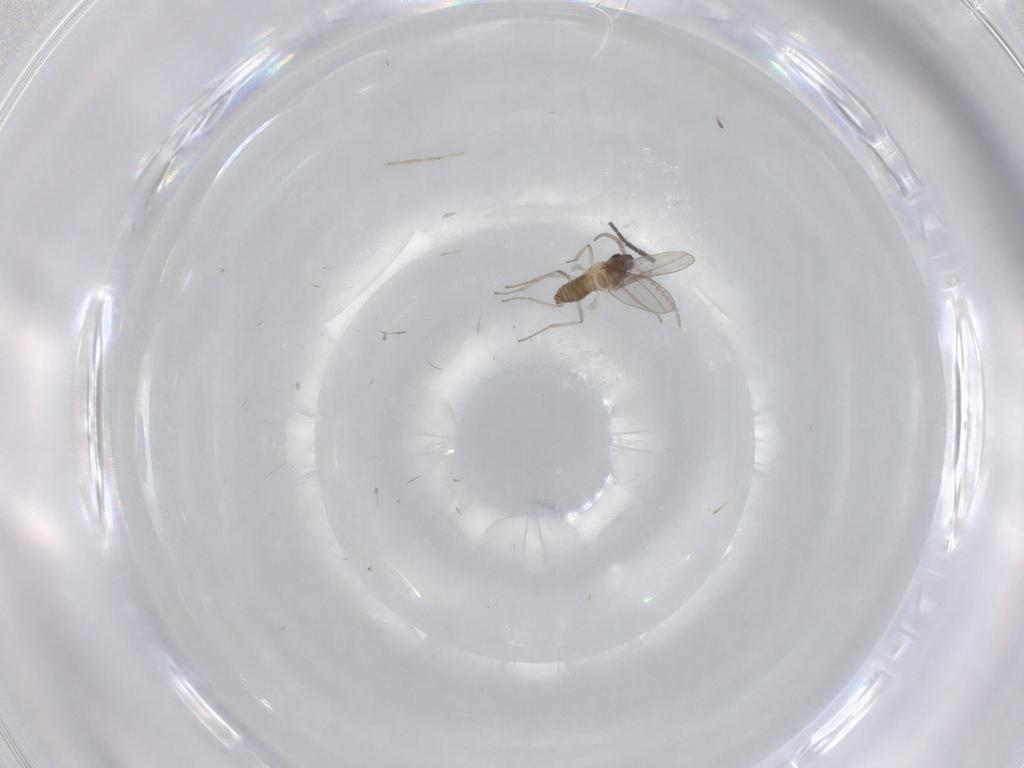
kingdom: Animalia
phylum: Arthropoda
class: Insecta
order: Diptera
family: Cecidomyiidae
